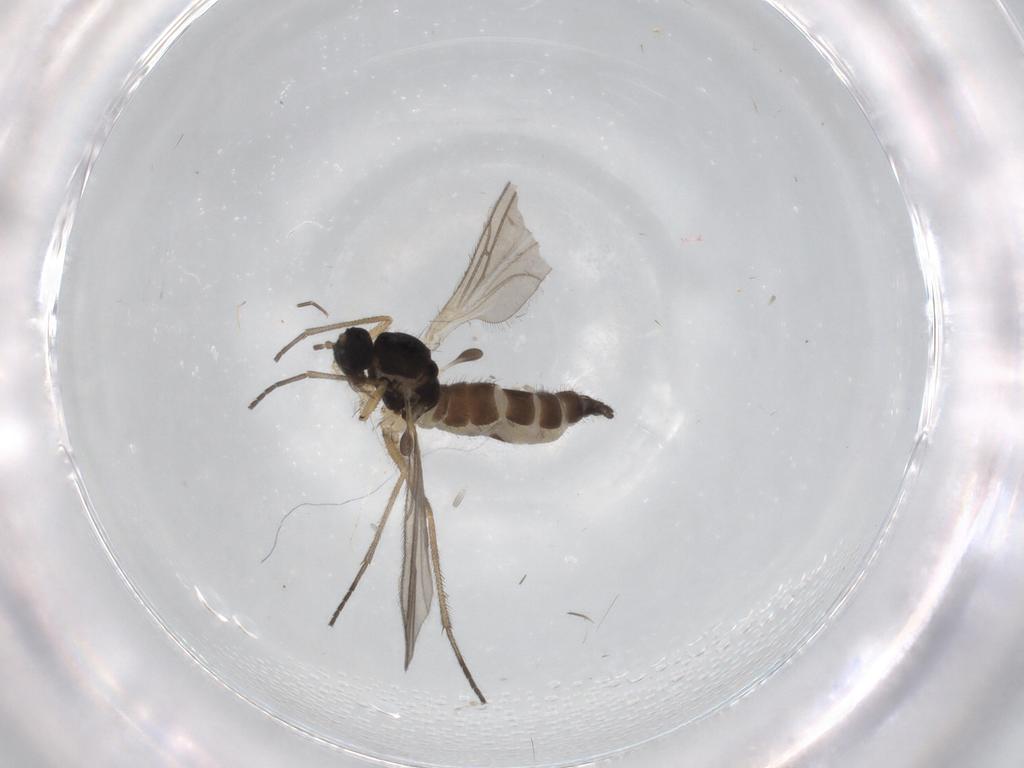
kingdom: Animalia
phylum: Arthropoda
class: Insecta
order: Diptera
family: Sciaridae
